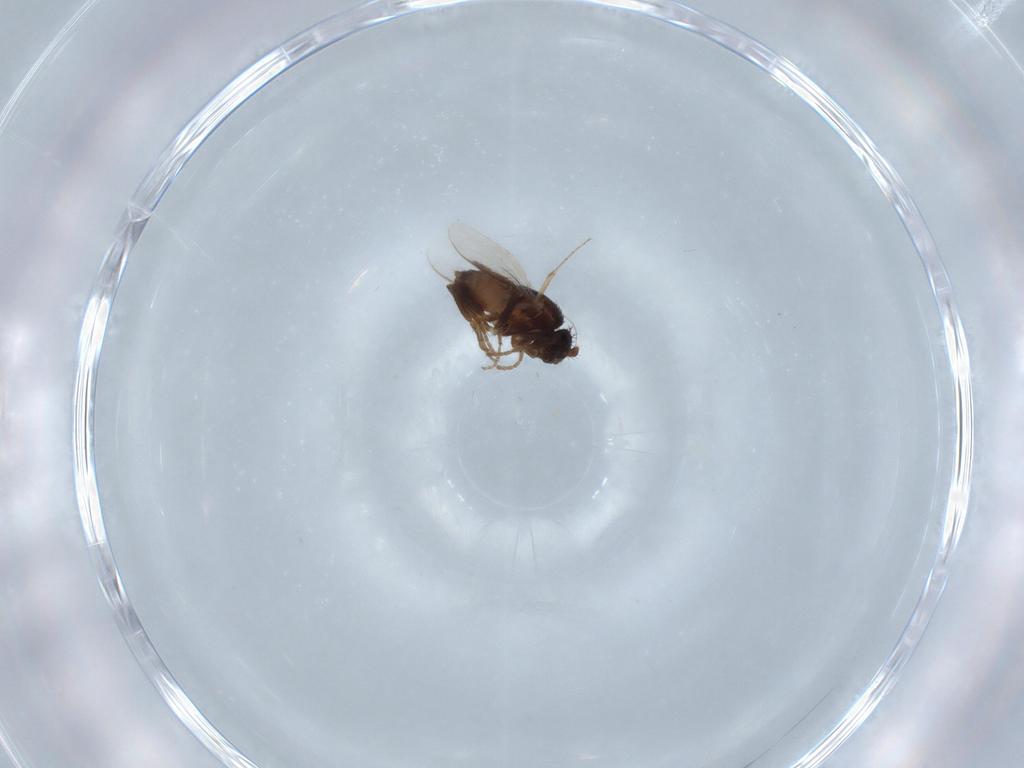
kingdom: Animalia
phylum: Arthropoda
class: Insecta
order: Diptera
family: Sphaeroceridae
